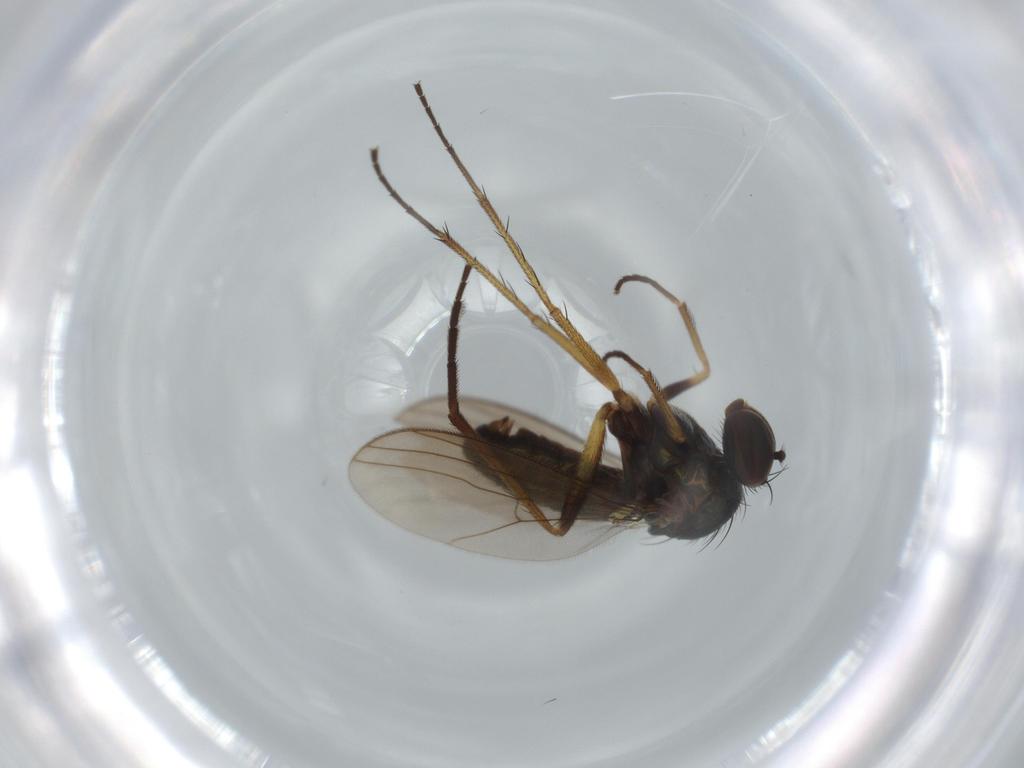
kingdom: Animalia
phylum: Arthropoda
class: Insecta
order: Diptera
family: Dolichopodidae
